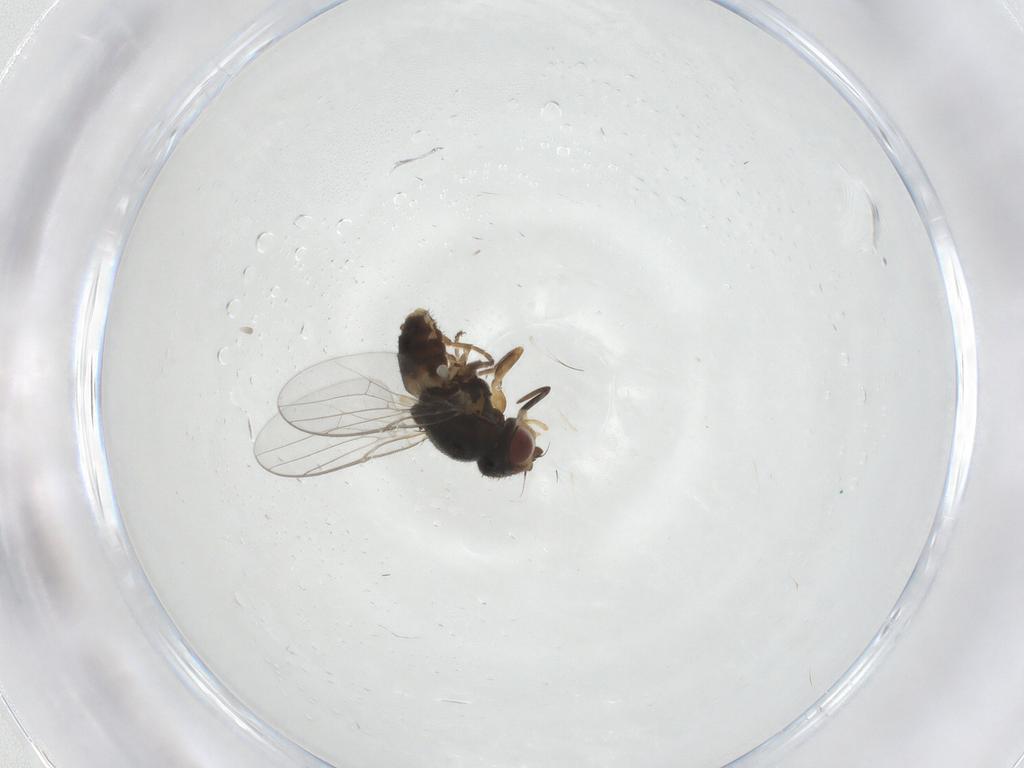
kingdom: Animalia
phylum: Arthropoda
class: Insecta
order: Diptera
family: Chloropidae
